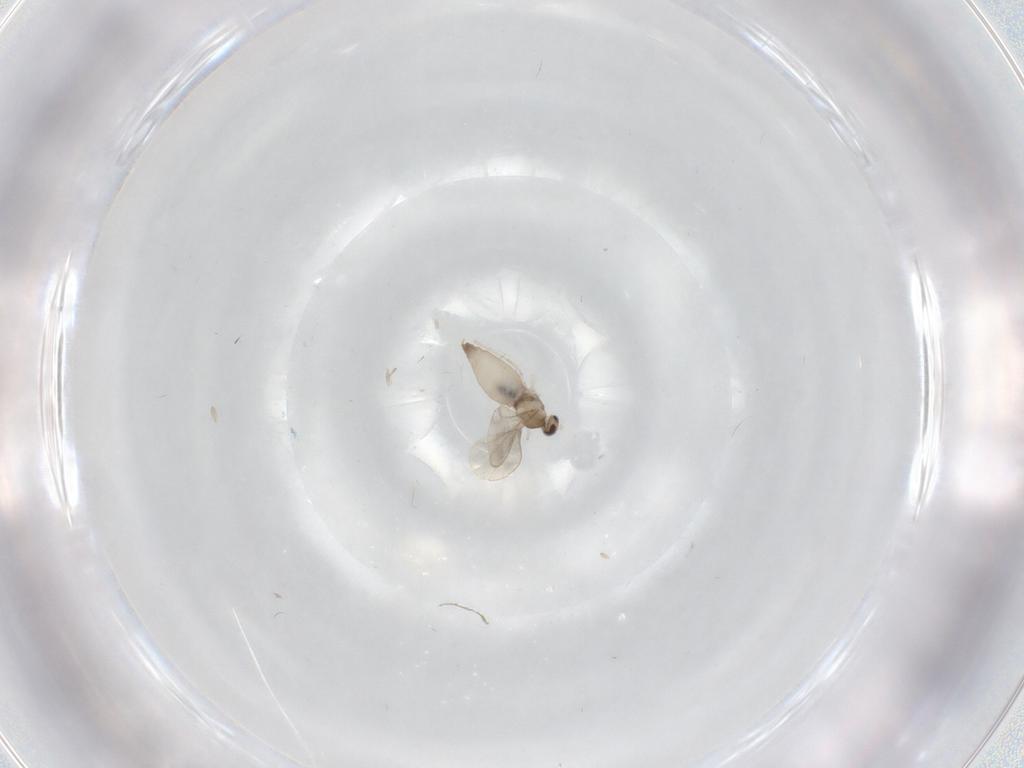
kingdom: Animalia
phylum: Arthropoda
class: Insecta
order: Diptera
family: Cecidomyiidae
